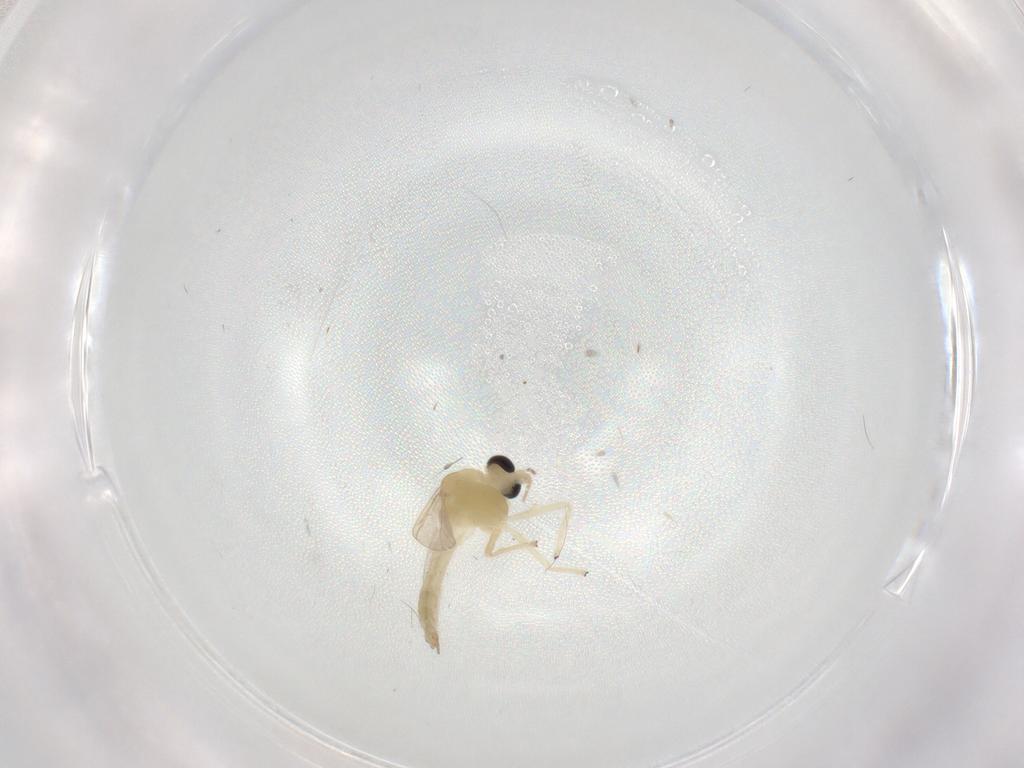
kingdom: Animalia
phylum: Arthropoda
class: Insecta
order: Diptera
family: Chironomidae
